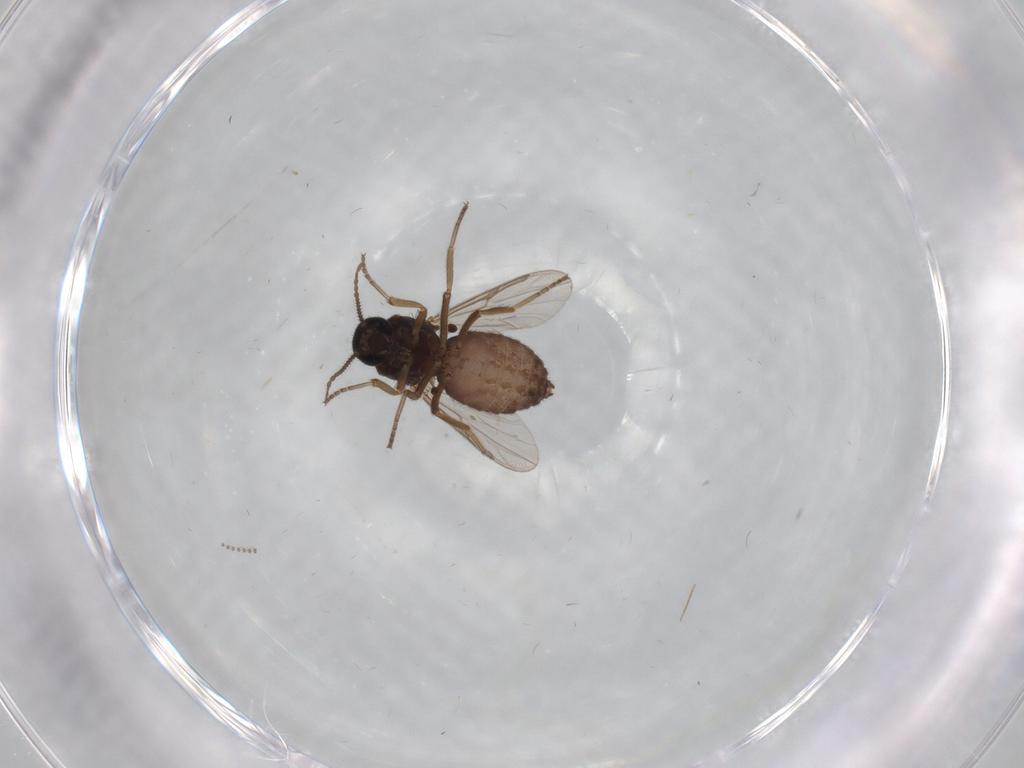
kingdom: Animalia
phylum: Arthropoda
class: Insecta
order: Diptera
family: Ceratopogonidae
